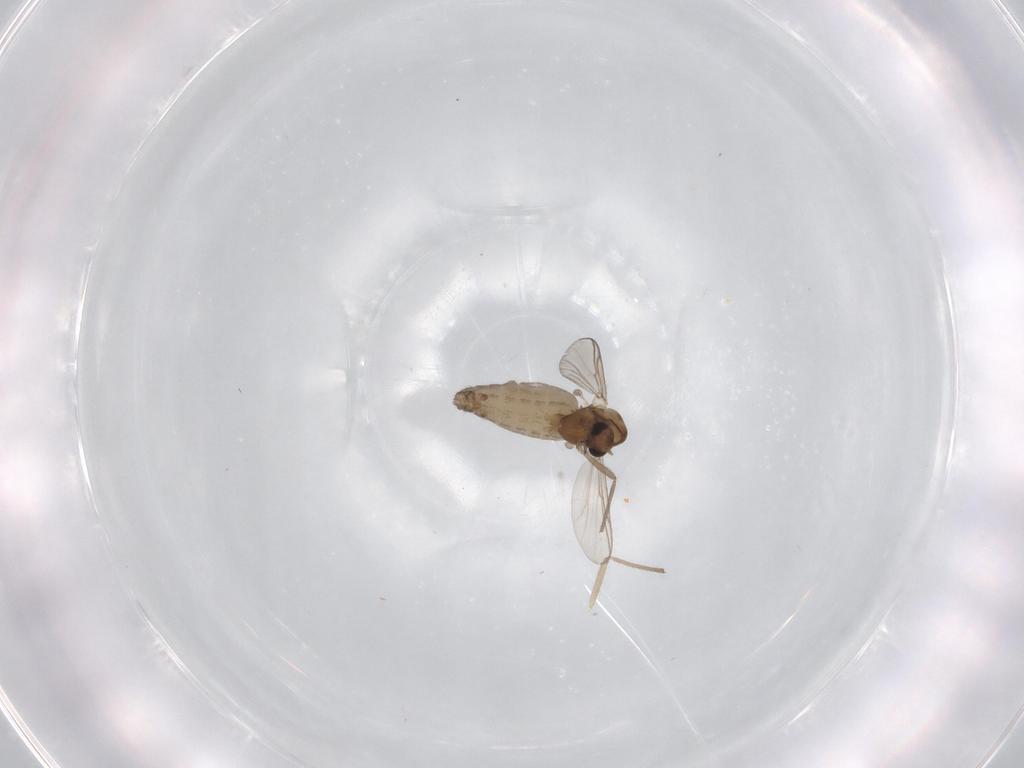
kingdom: Animalia
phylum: Arthropoda
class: Insecta
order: Diptera
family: Chironomidae
